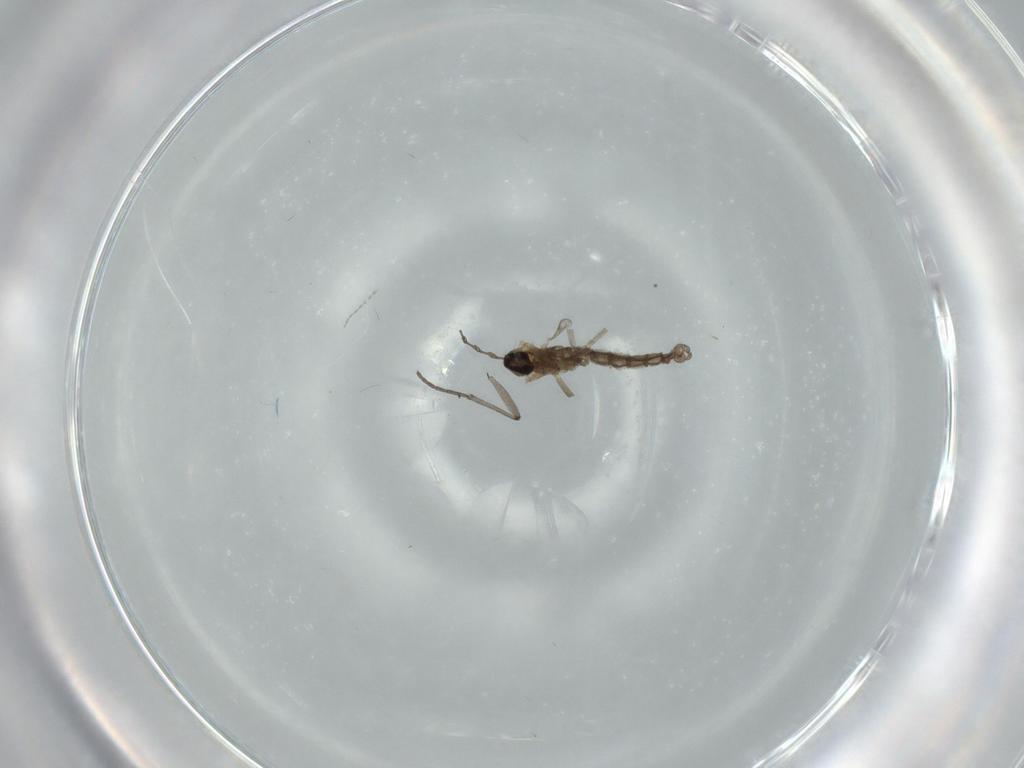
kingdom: Animalia
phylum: Arthropoda
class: Insecta
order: Diptera
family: Cecidomyiidae
